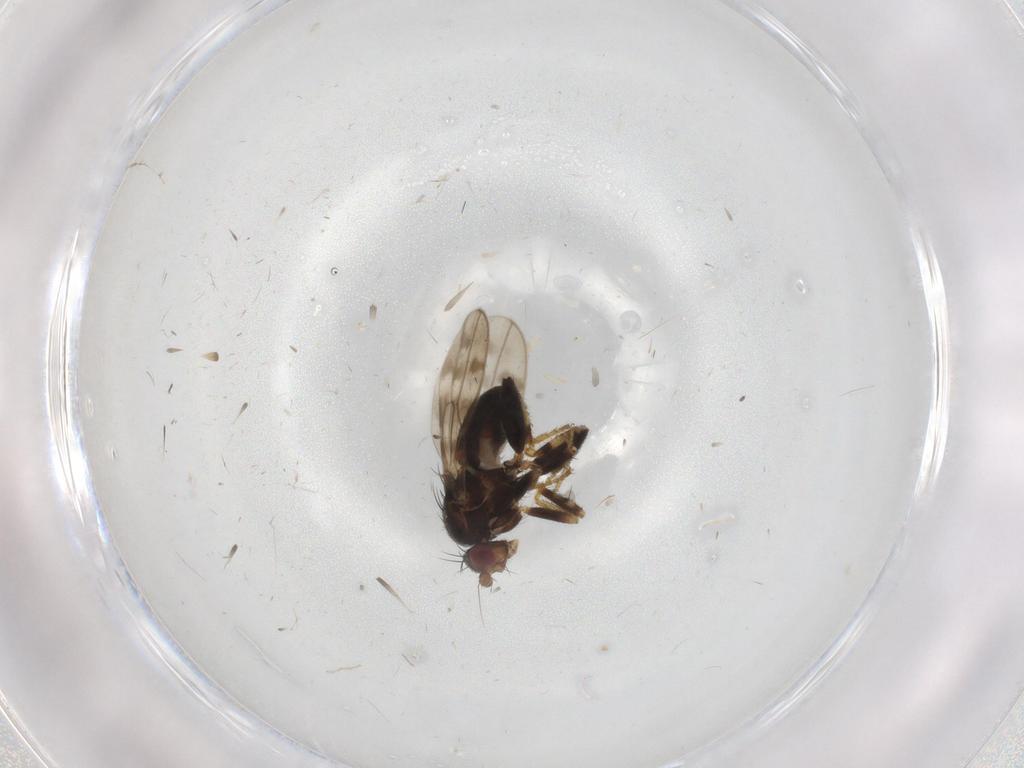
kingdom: Animalia
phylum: Arthropoda
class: Insecta
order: Diptera
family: Sphaeroceridae
